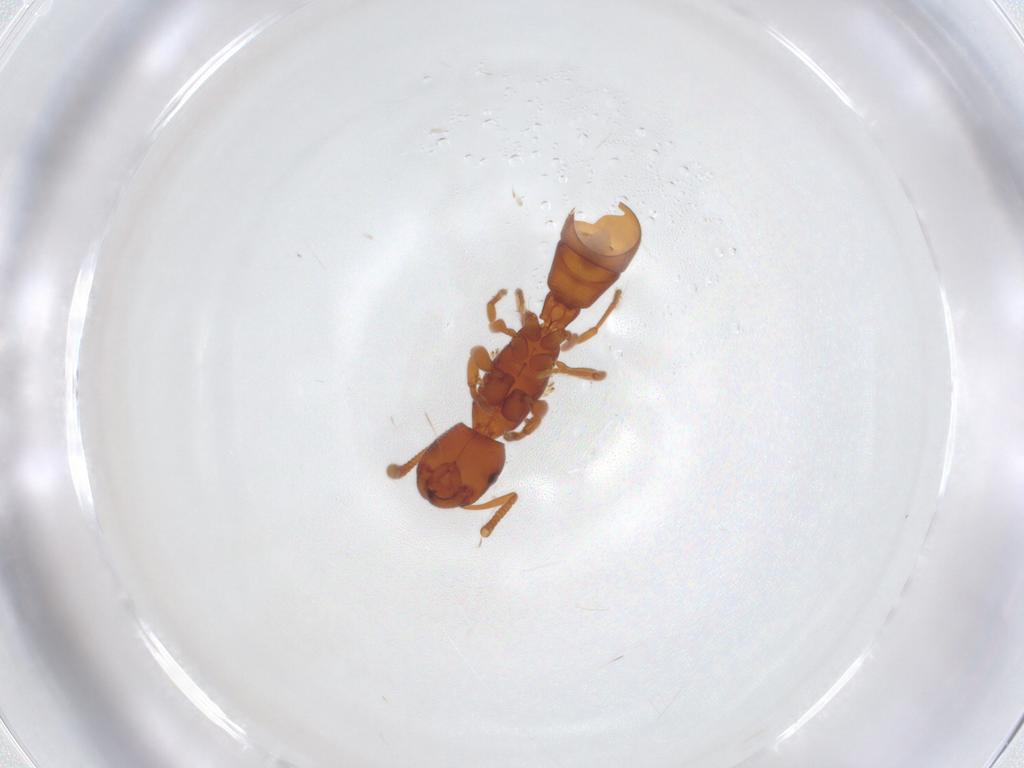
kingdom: Animalia
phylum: Arthropoda
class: Insecta
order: Hymenoptera
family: Formicidae
